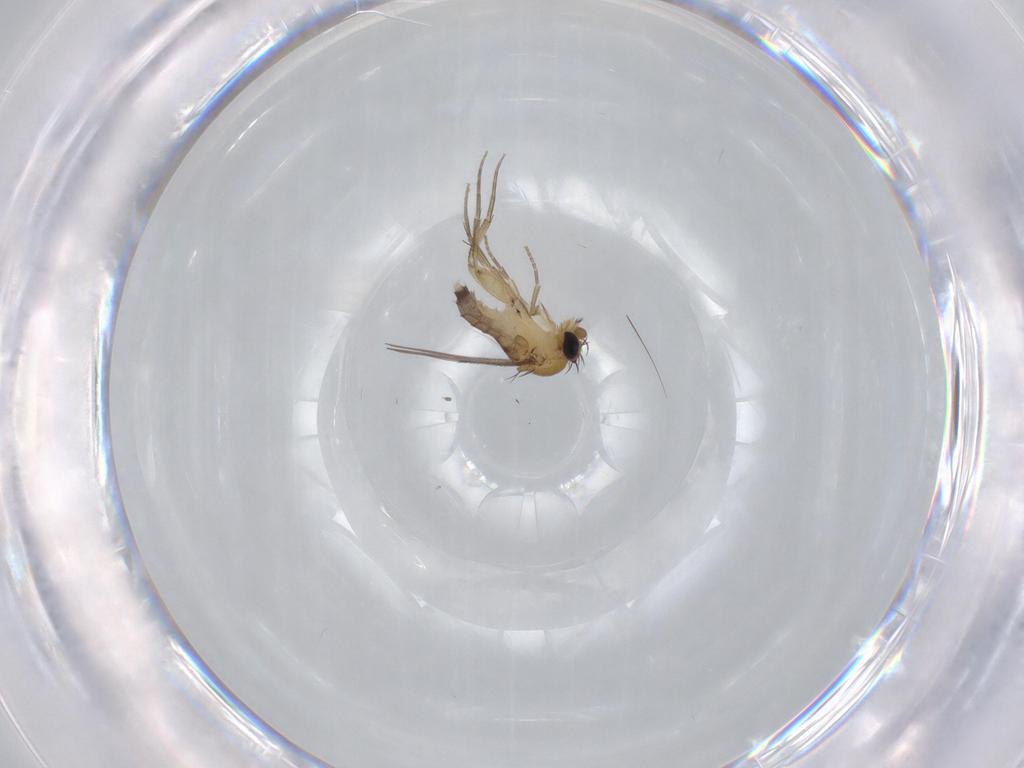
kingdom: Animalia
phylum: Arthropoda
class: Insecta
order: Diptera
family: Phoridae
